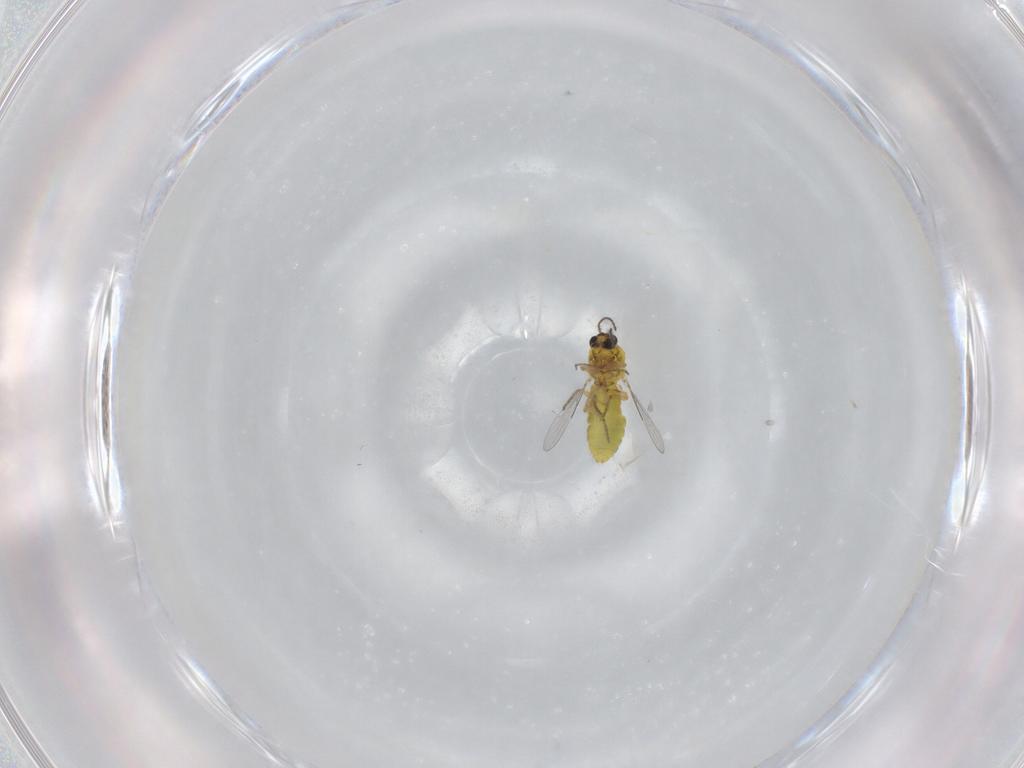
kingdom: Animalia
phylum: Arthropoda
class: Insecta
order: Diptera
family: Ceratopogonidae
